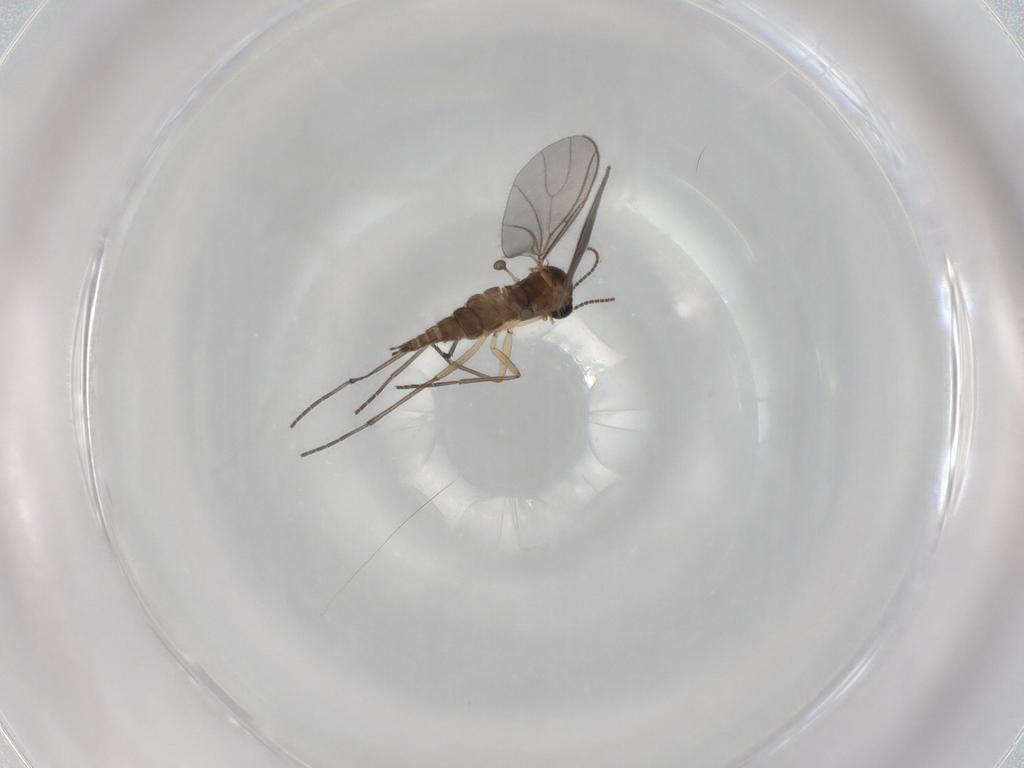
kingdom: Animalia
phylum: Arthropoda
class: Insecta
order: Diptera
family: Sciaridae
